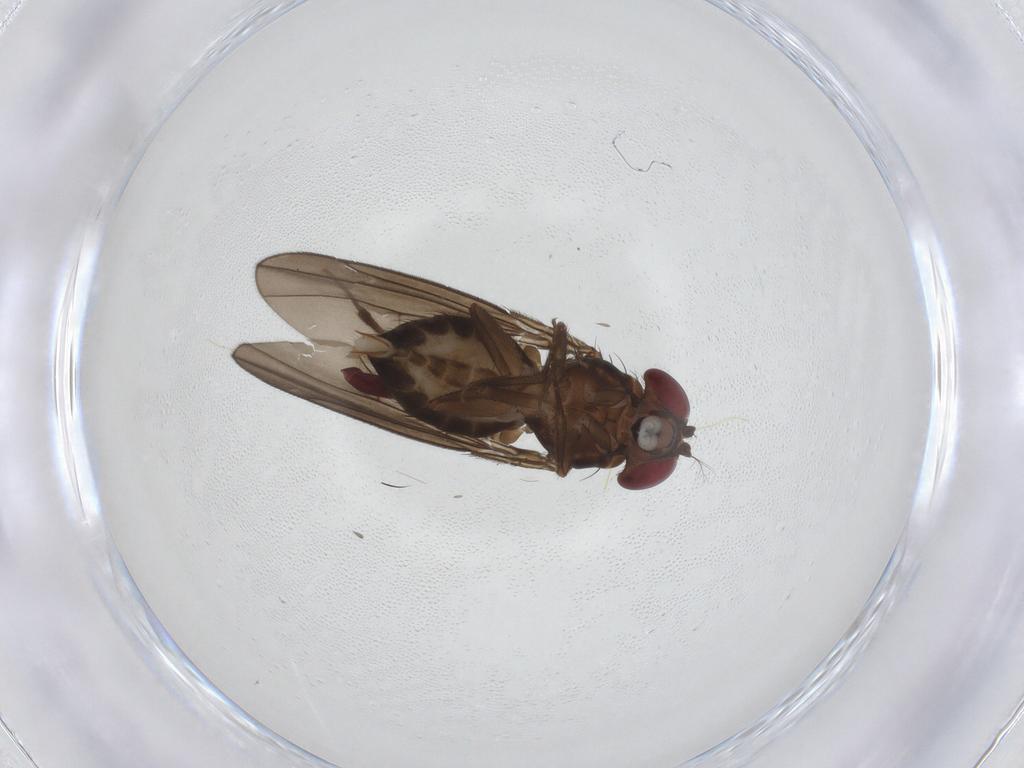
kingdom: Animalia
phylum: Arthropoda
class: Insecta
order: Diptera
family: Drosophilidae
